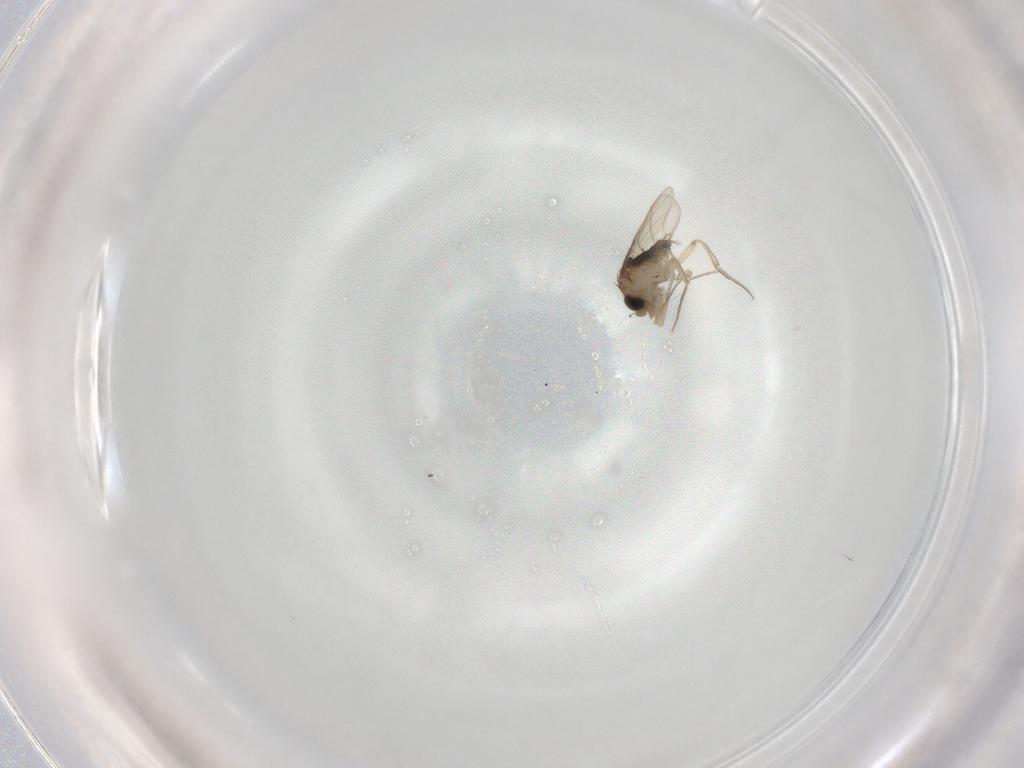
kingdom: Animalia
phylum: Arthropoda
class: Insecta
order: Diptera
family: Phoridae
